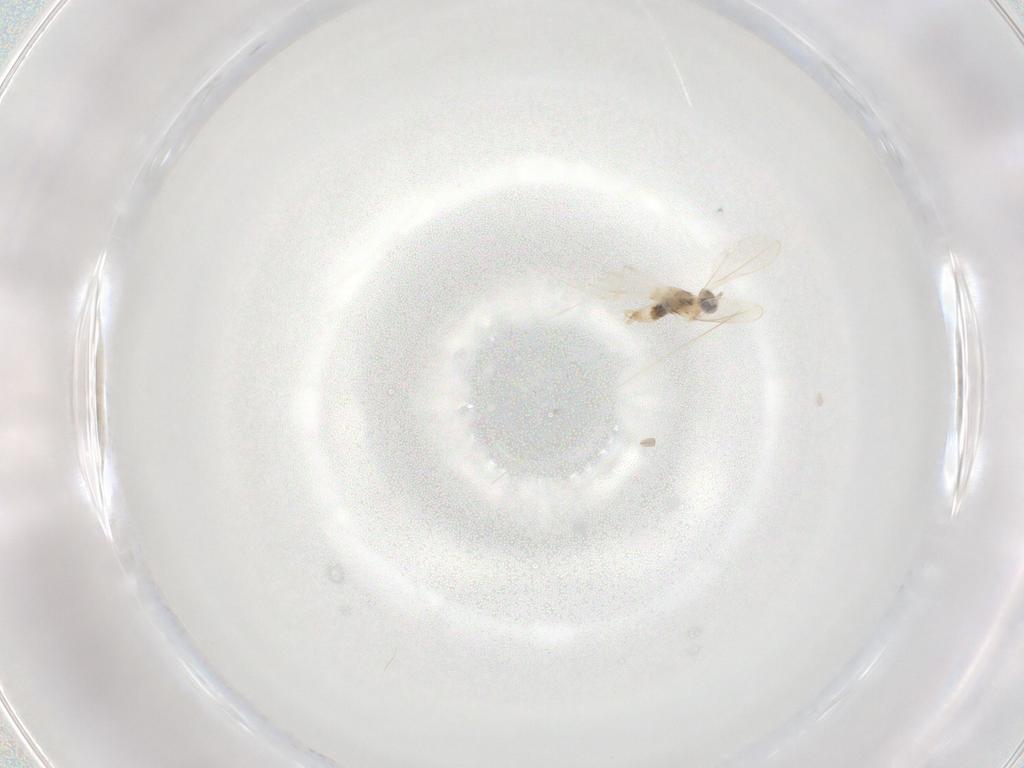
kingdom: Animalia
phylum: Arthropoda
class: Insecta
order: Diptera
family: Cecidomyiidae
